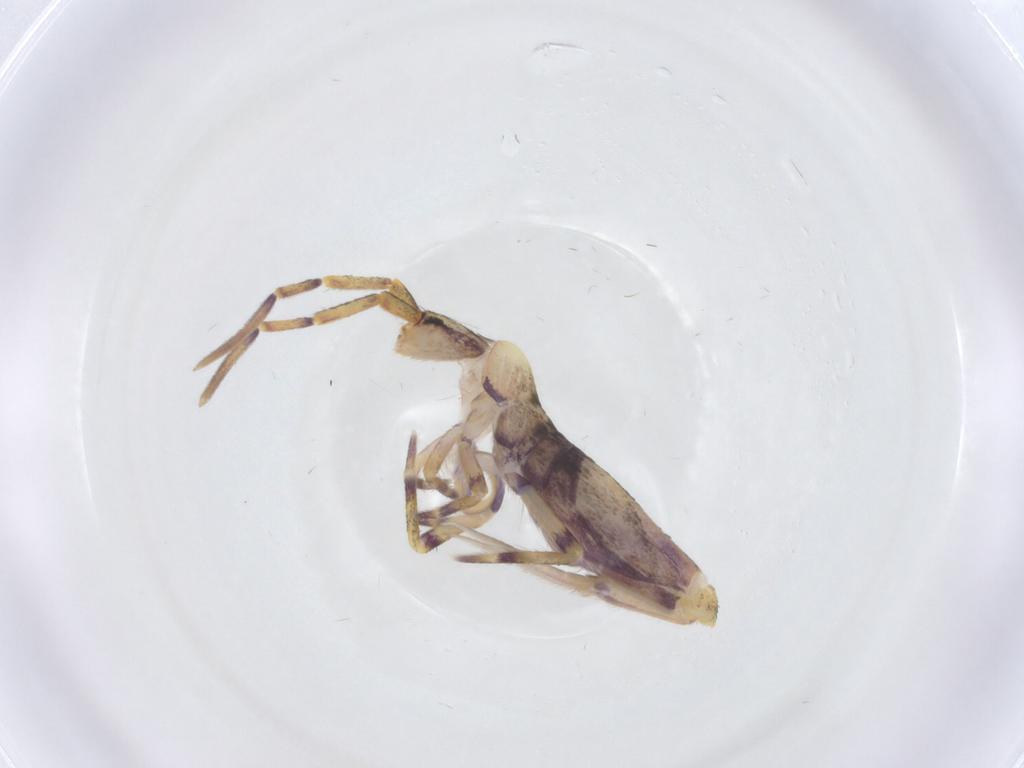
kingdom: Animalia
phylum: Arthropoda
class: Collembola
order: Entomobryomorpha
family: Entomobryidae
